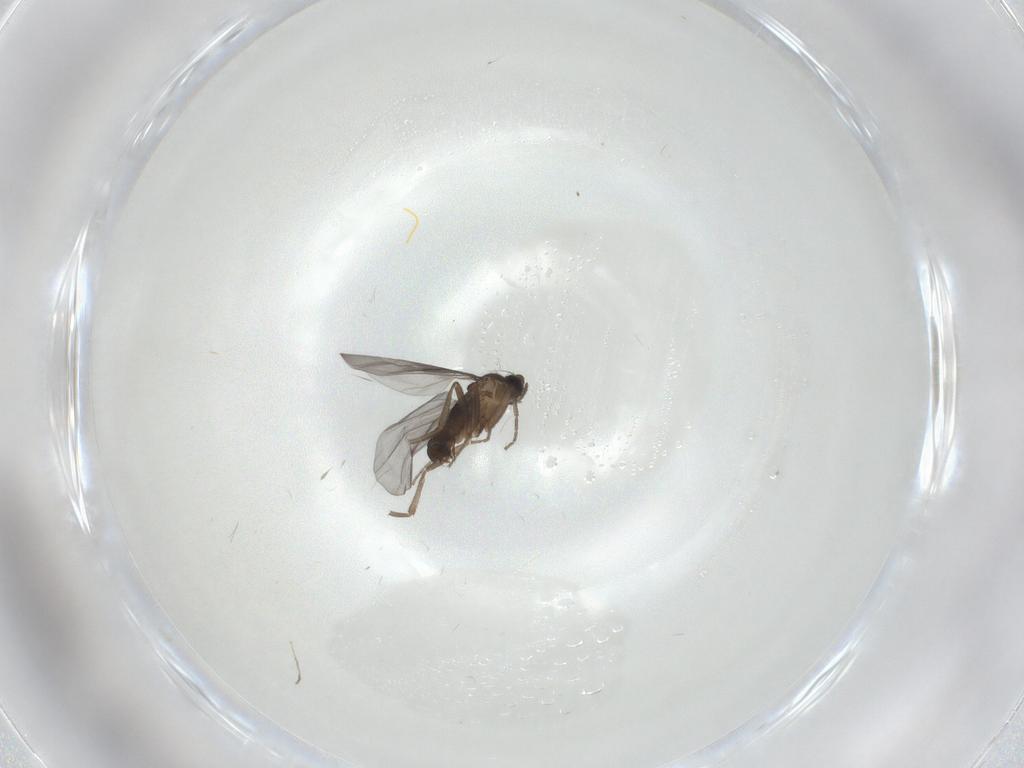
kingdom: Animalia
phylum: Arthropoda
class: Insecta
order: Diptera
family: Phoridae
